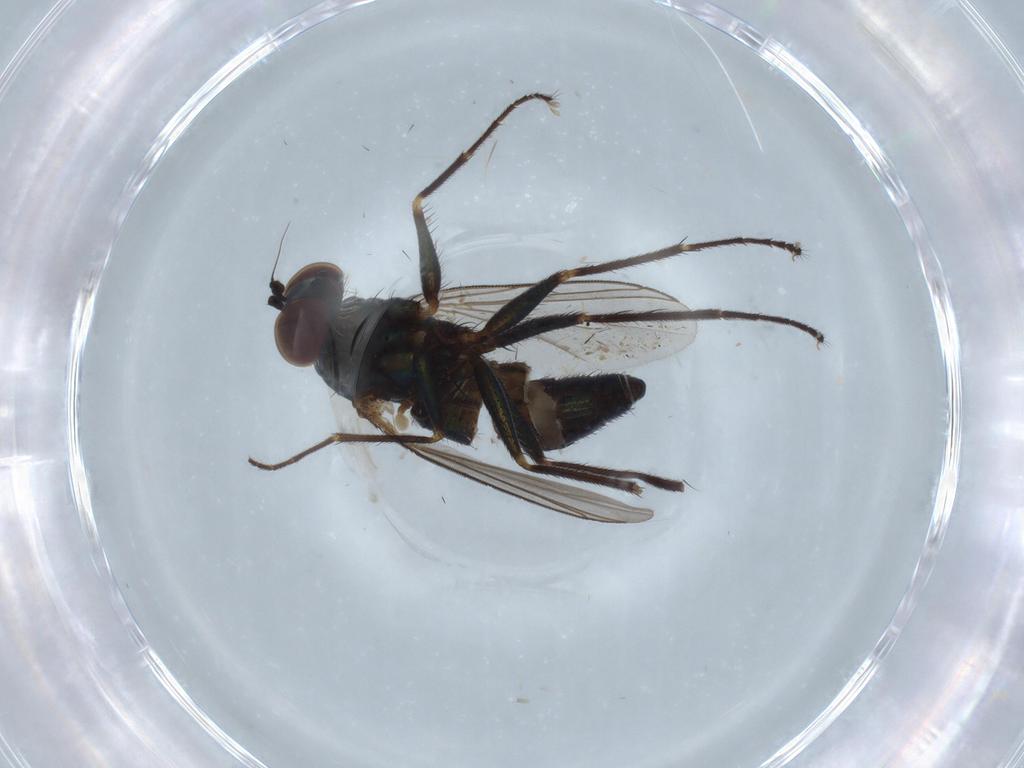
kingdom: Animalia
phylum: Arthropoda
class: Insecta
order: Diptera
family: Dolichopodidae
